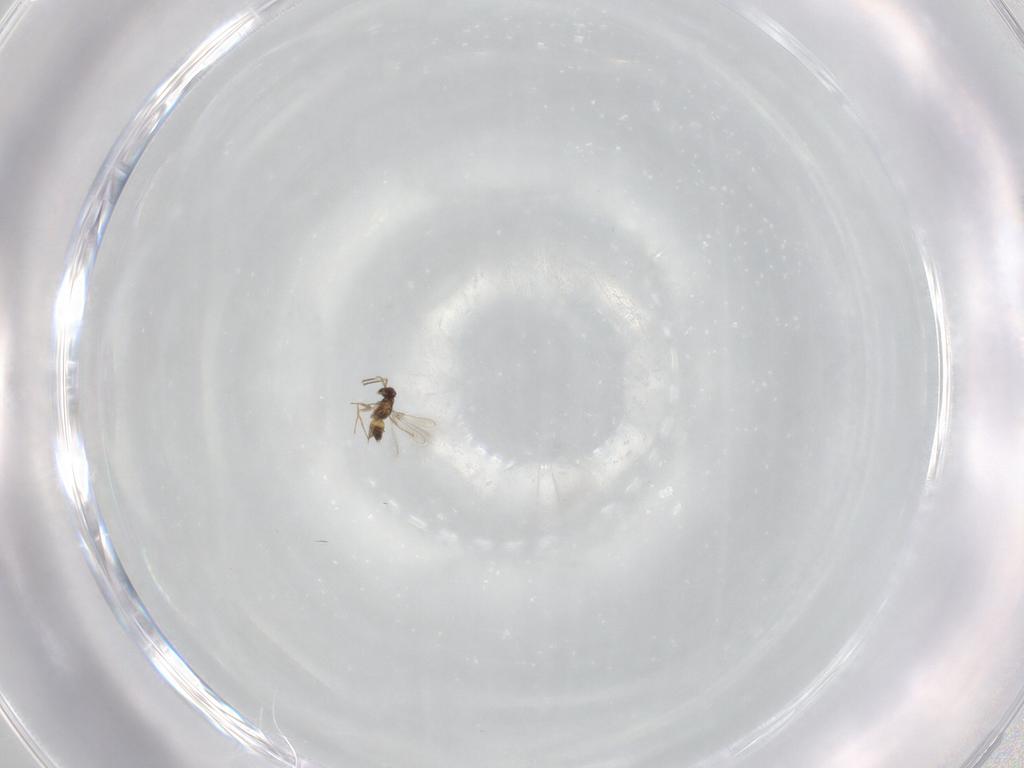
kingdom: Animalia
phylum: Arthropoda
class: Insecta
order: Hymenoptera
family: Mymaridae
